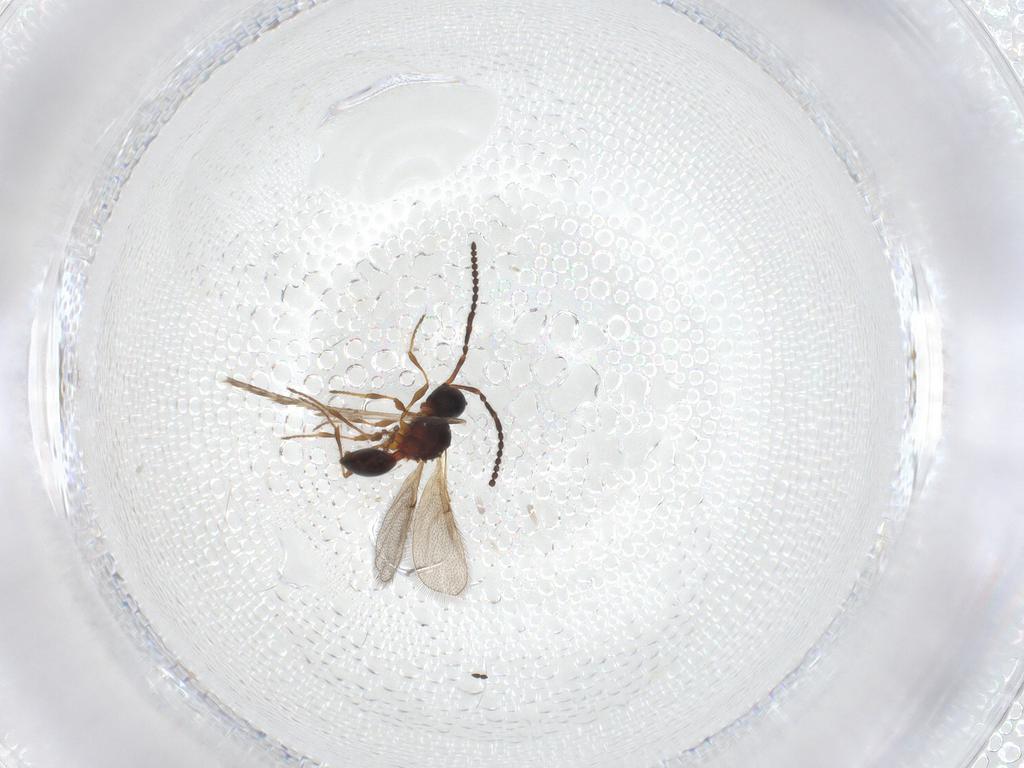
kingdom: Animalia
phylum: Arthropoda
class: Insecta
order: Hymenoptera
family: Diapriidae
